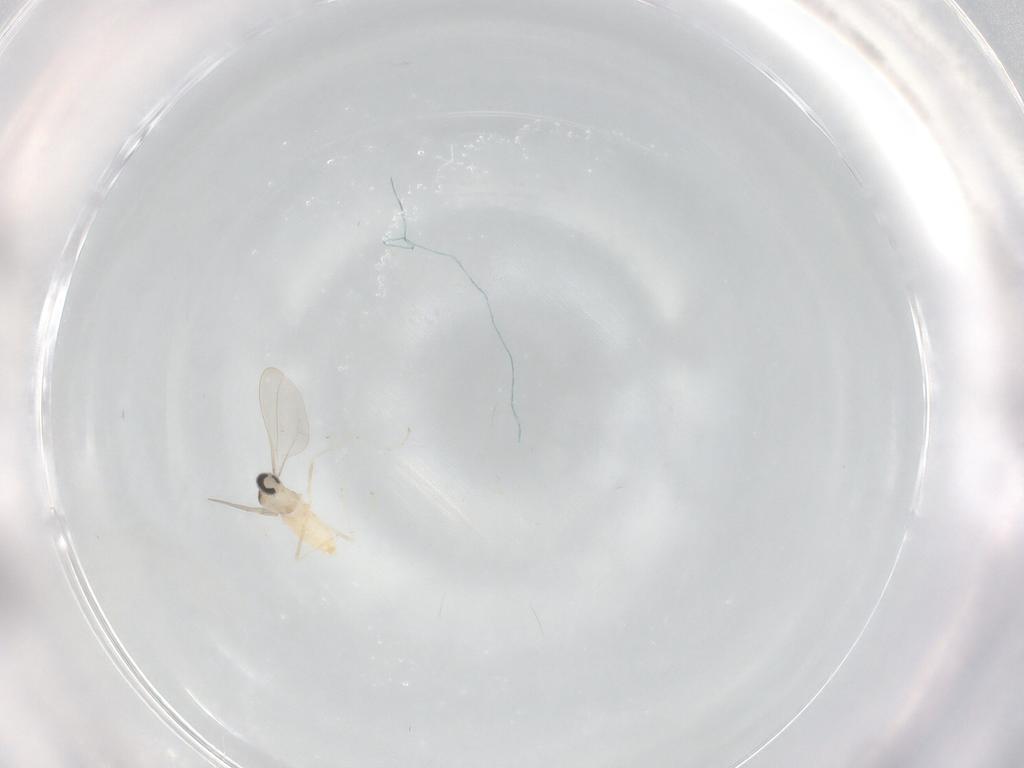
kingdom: Animalia
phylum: Arthropoda
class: Insecta
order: Diptera
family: Cecidomyiidae
